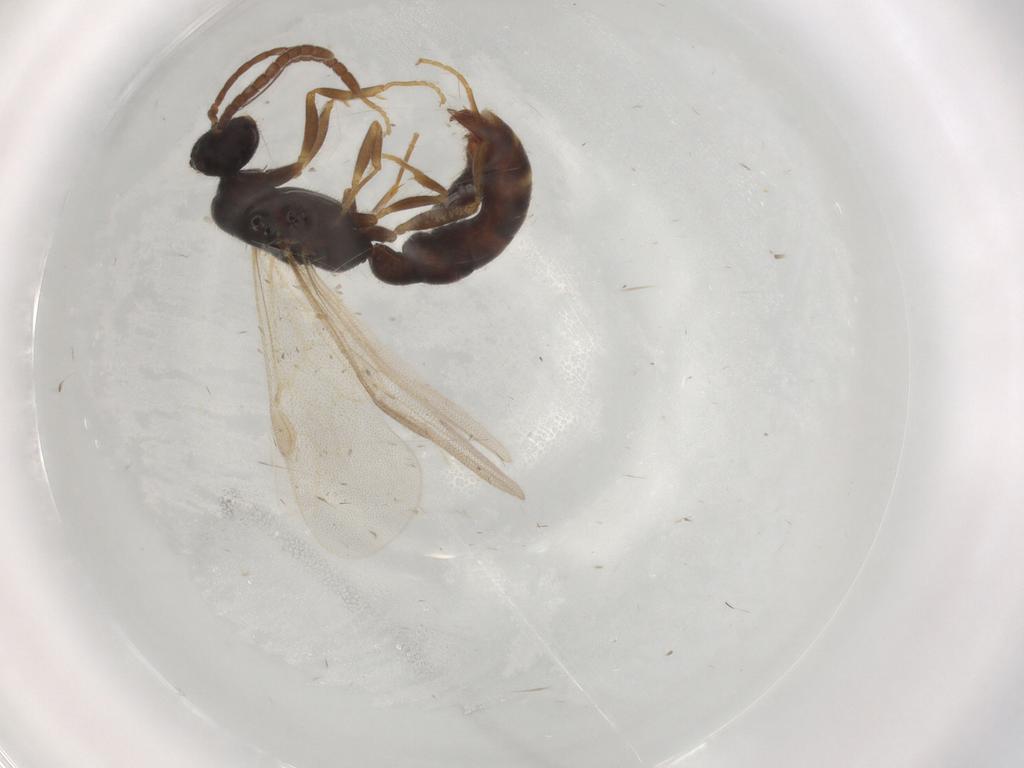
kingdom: Animalia
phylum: Arthropoda
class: Insecta
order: Hymenoptera
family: Formicidae
